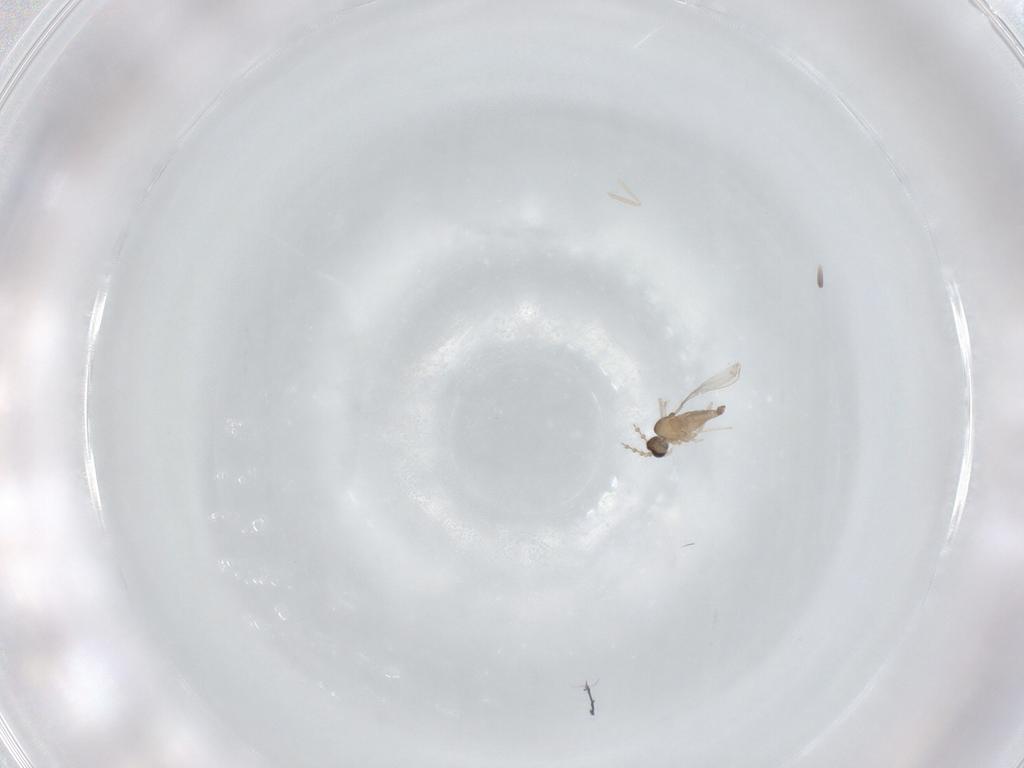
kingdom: Animalia
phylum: Arthropoda
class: Insecta
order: Diptera
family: Cecidomyiidae
